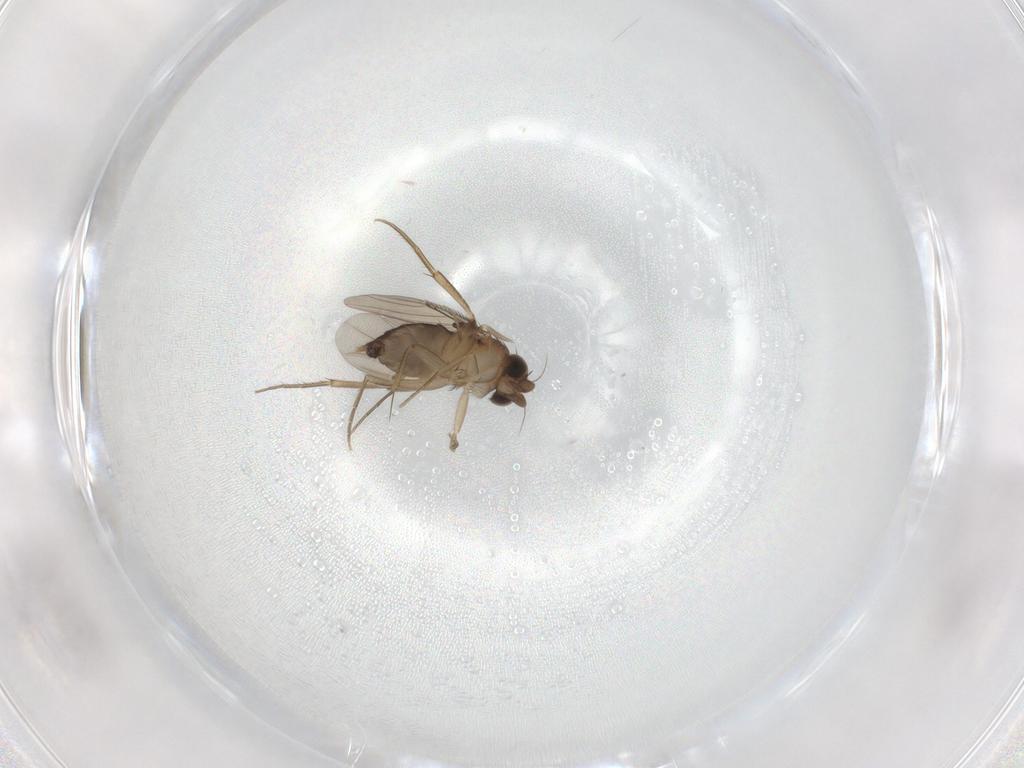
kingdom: Animalia
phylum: Arthropoda
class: Insecta
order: Diptera
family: Phoridae
